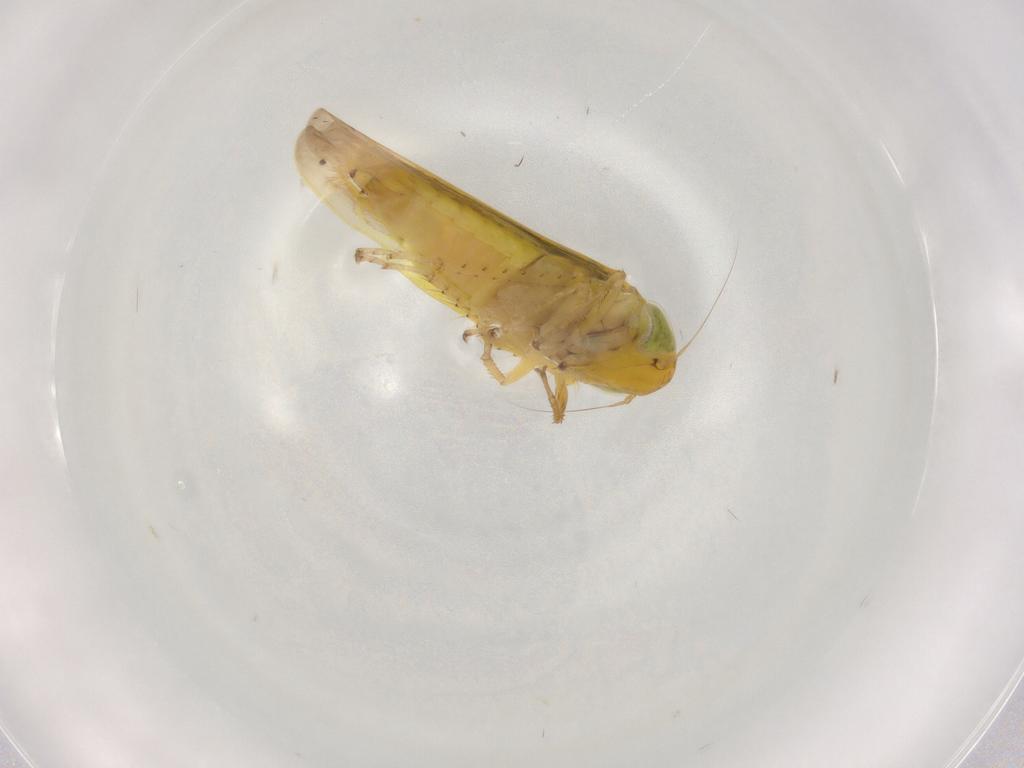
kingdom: Animalia
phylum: Arthropoda
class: Insecta
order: Hemiptera
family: Cicadellidae
